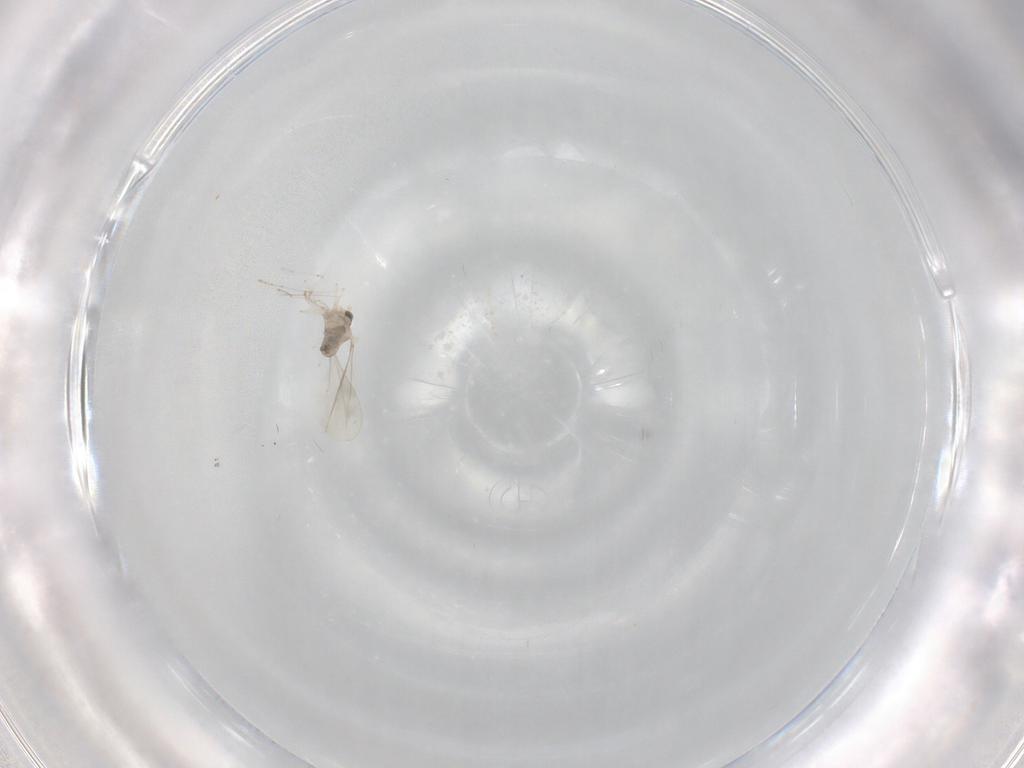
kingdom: Animalia
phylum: Arthropoda
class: Insecta
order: Diptera
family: Cecidomyiidae
